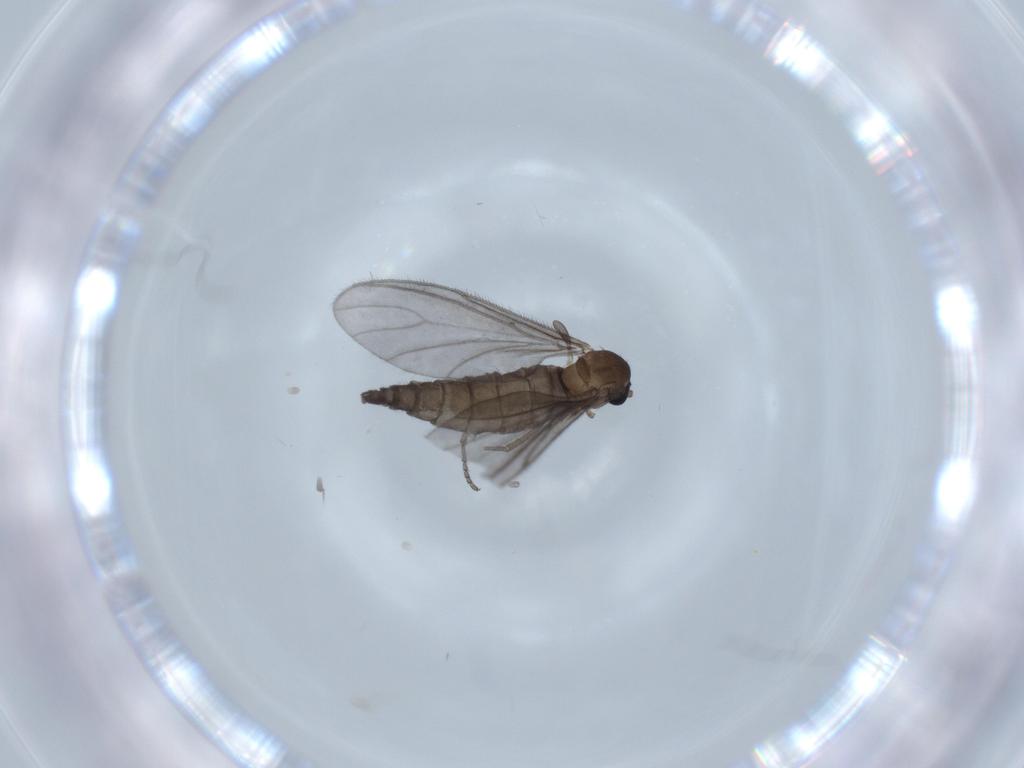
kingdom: Animalia
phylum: Arthropoda
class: Insecta
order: Diptera
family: Sciaridae
